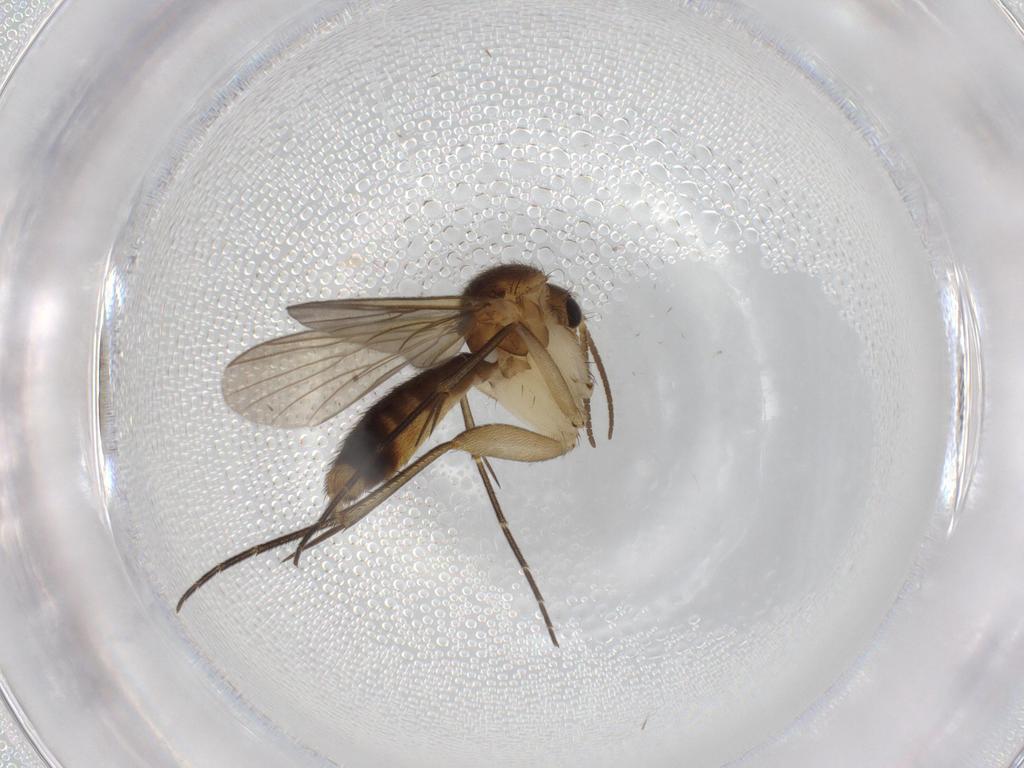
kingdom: Animalia
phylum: Arthropoda
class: Insecta
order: Diptera
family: Mycetophilidae
